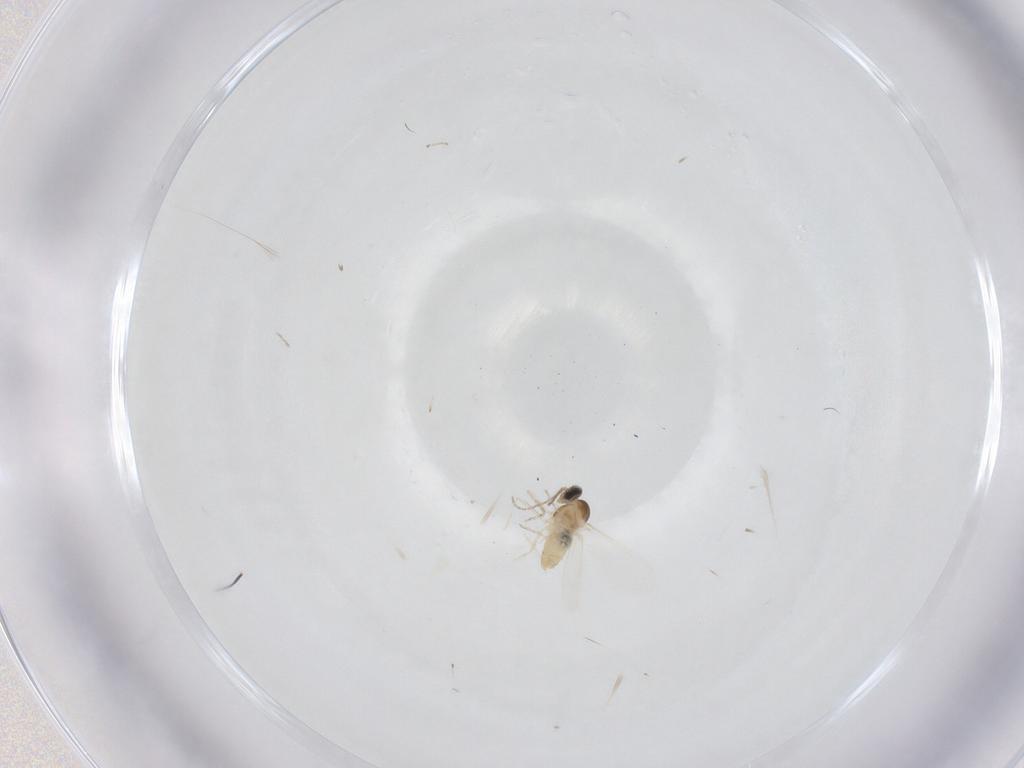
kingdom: Animalia
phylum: Arthropoda
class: Insecta
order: Diptera
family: Cecidomyiidae
